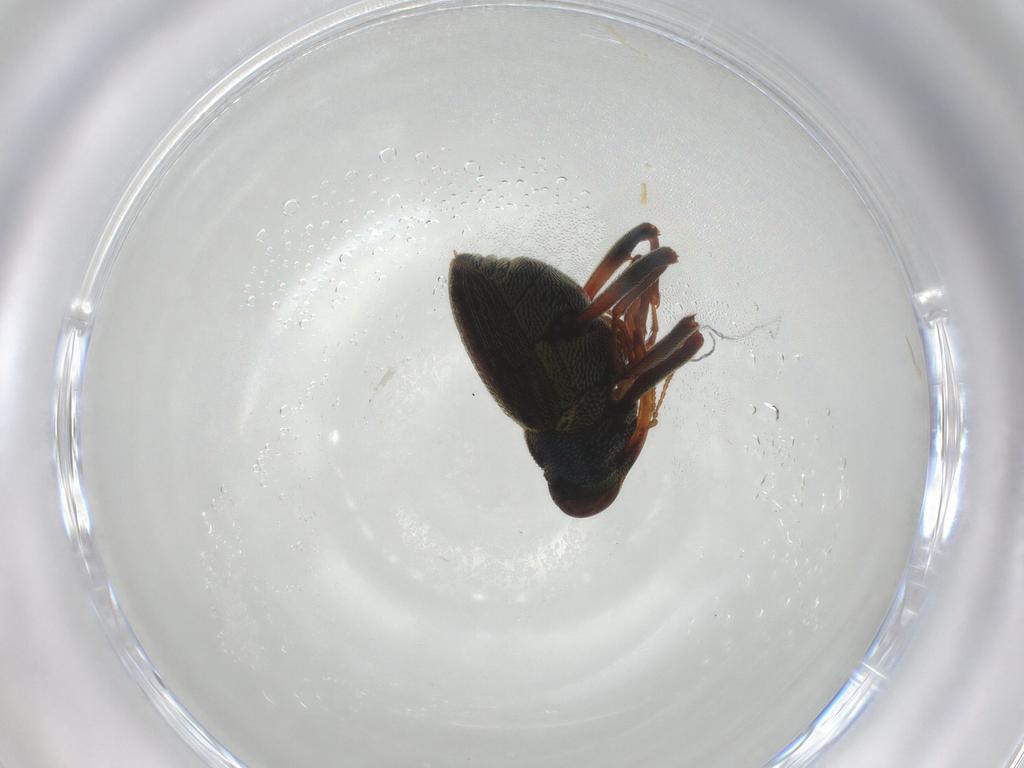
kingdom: Animalia
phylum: Arthropoda
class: Insecta
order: Coleoptera
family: Curculionidae
